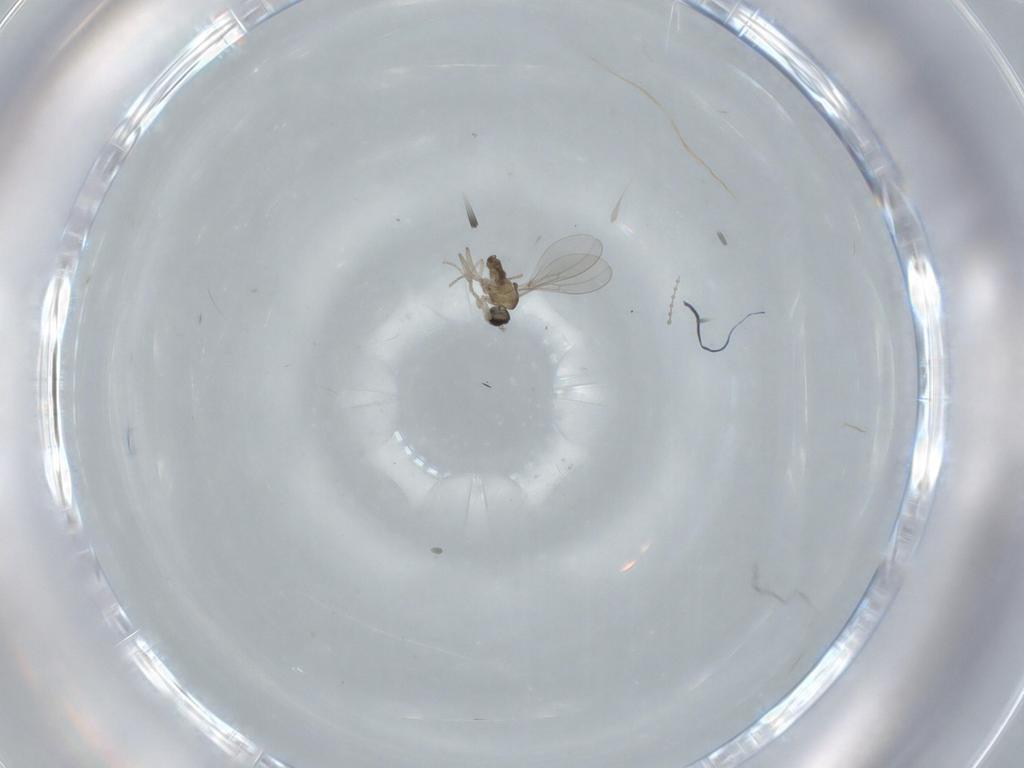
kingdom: Animalia
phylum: Arthropoda
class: Insecta
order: Diptera
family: Cecidomyiidae
